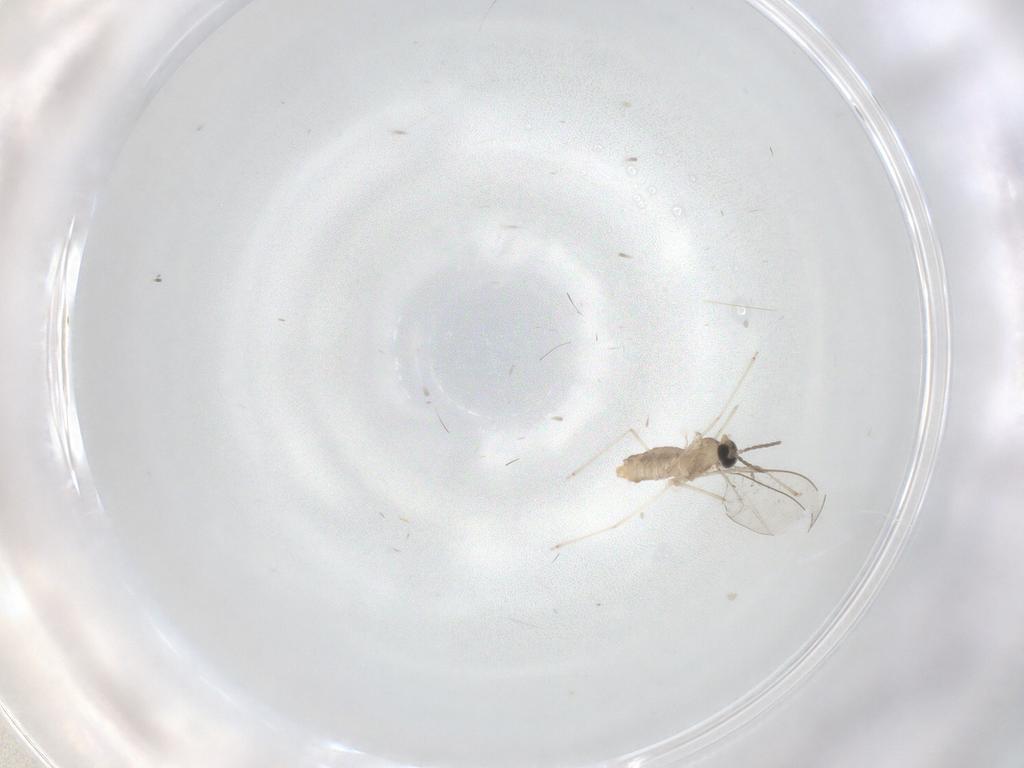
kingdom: Animalia
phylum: Arthropoda
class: Insecta
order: Diptera
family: Cecidomyiidae
